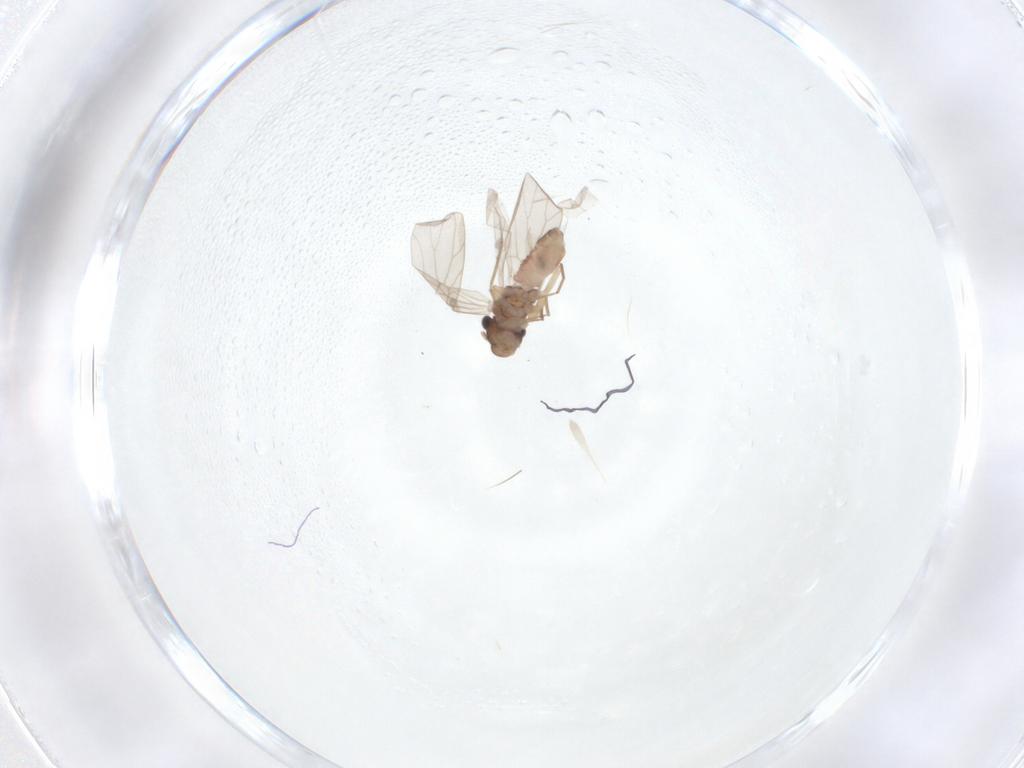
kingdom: Animalia
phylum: Arthropoda
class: Insecta
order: Psocodea
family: Lepidopsocidae
